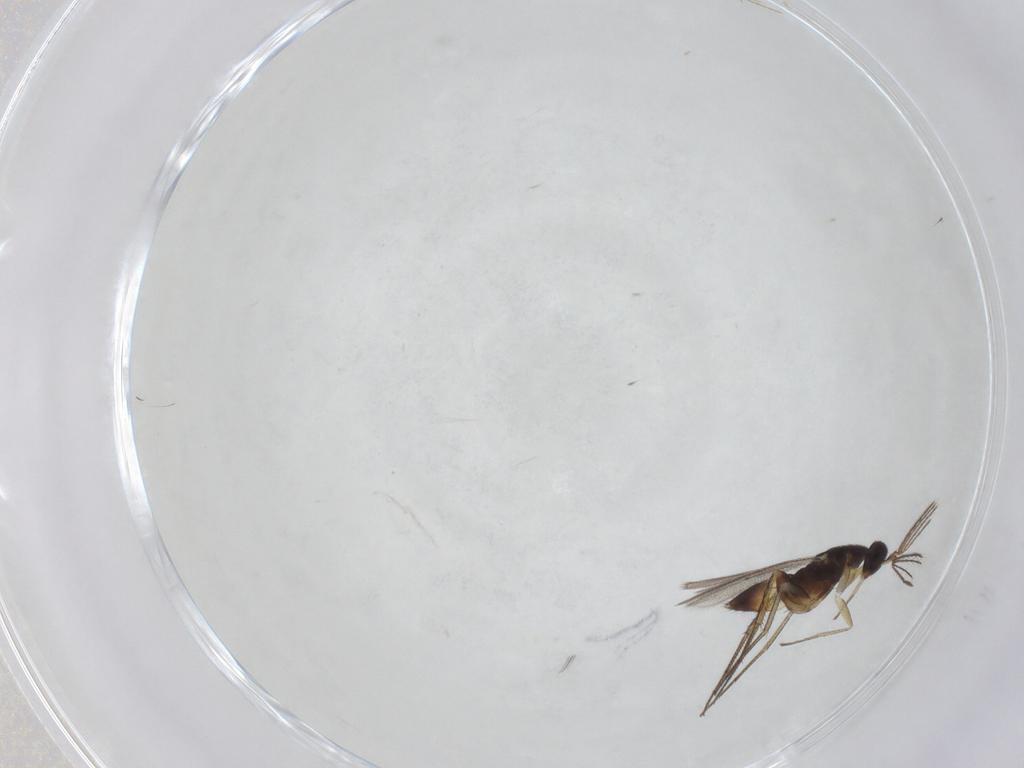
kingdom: Animalia
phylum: Arthropoda
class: Insecta
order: Diptera
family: Ceratopogonidae
